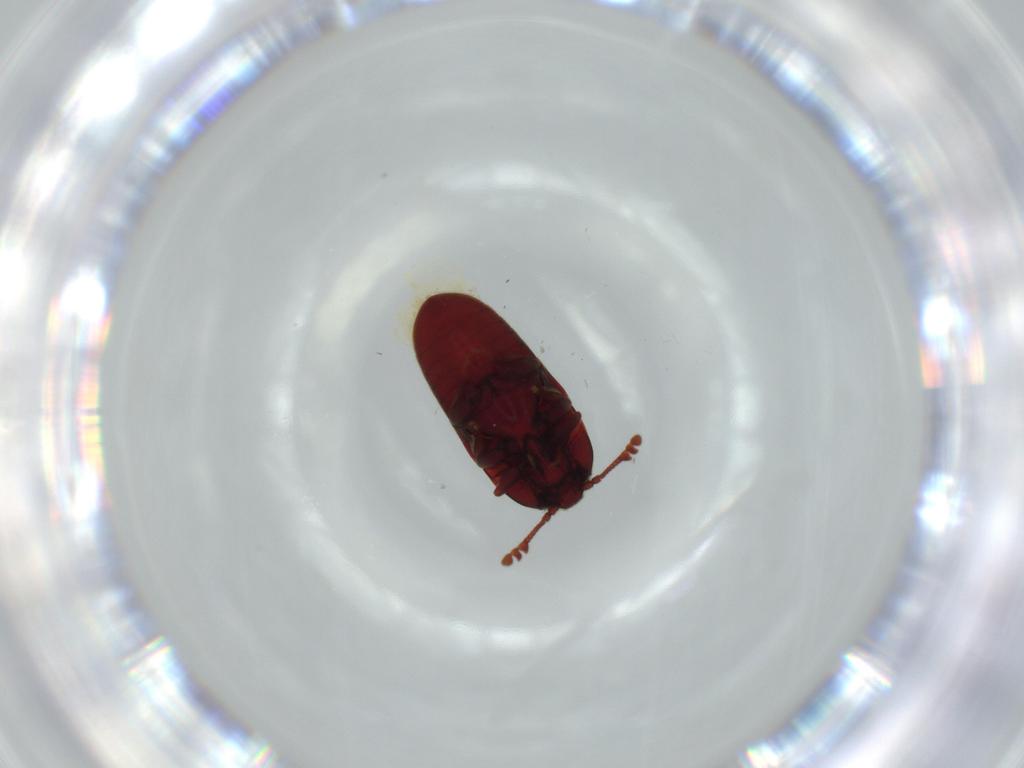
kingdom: Animalia
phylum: Arthropoda
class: Insecta
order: Coleoptera
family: Throscidae
